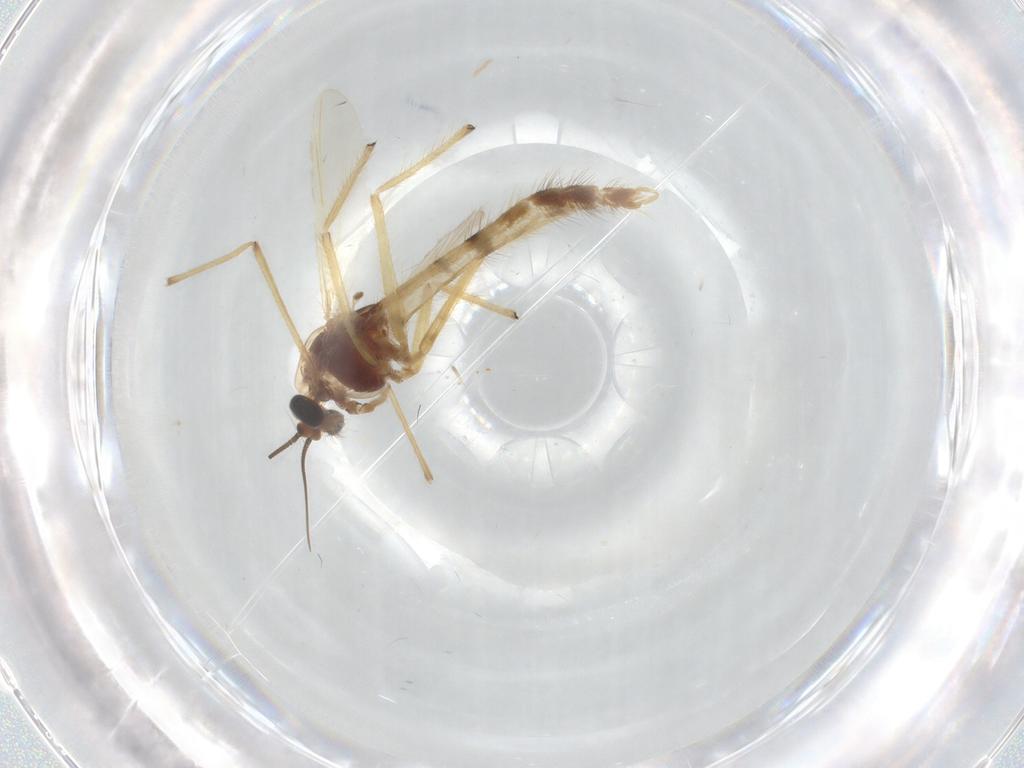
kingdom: Animalia
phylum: Arthropoda
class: Insecta
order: Diptera
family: Chironomidae
